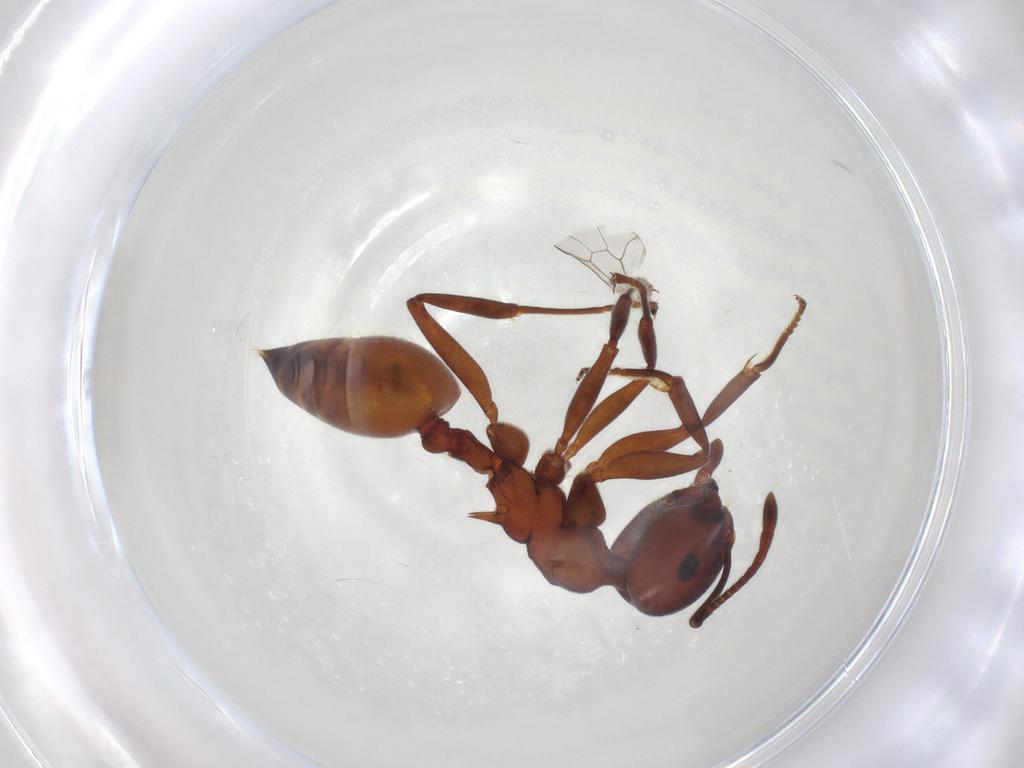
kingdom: Animalia
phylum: Arthropoda
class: Insecta
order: Hymenoptera
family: Formicidae
